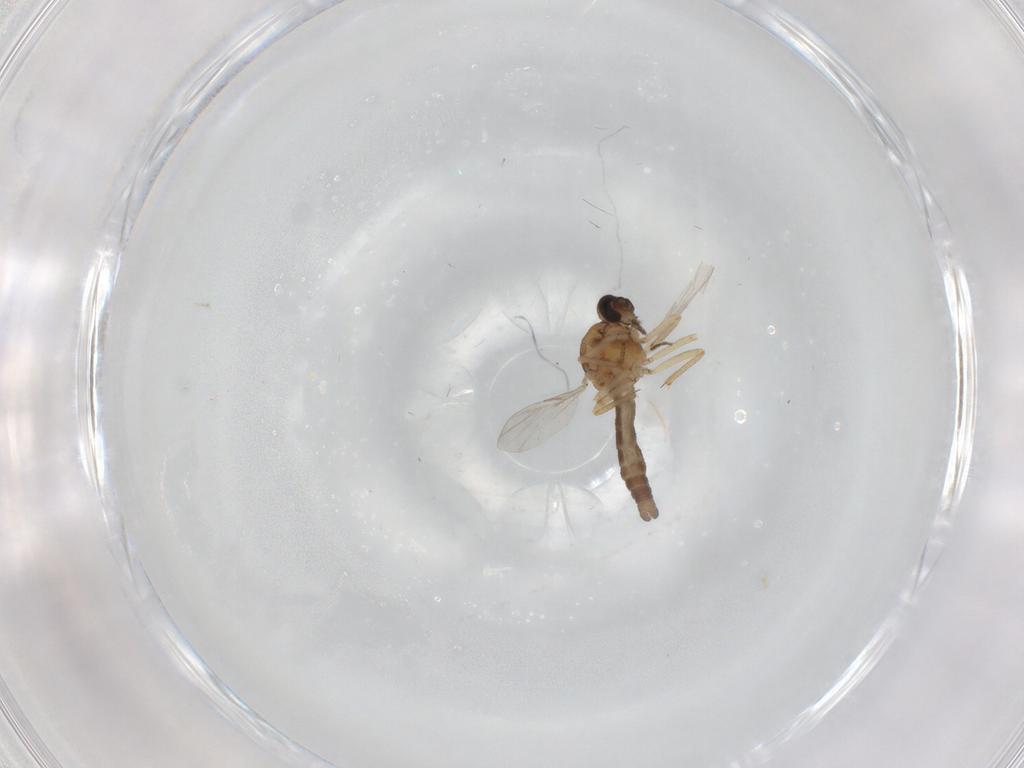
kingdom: Animalia
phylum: Arthropoda
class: Insecta
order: Diptera
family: Ceratopogonidae
